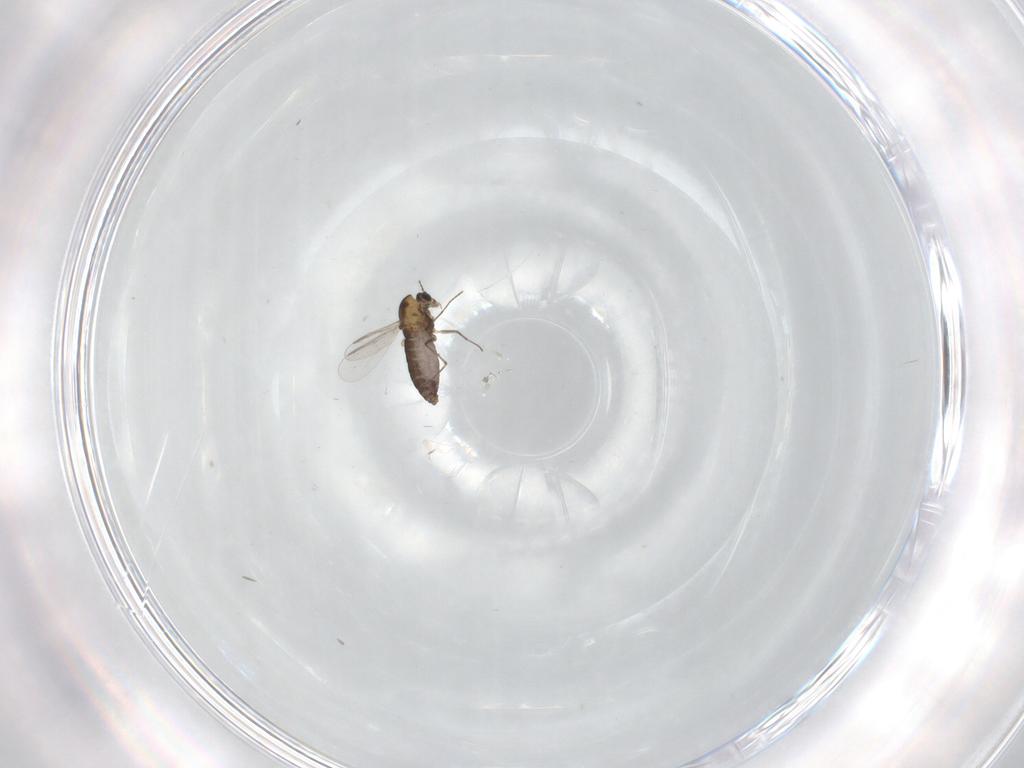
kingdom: Animalia
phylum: Arthropoda
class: Insecta
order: Diptera
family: Chironomidae
